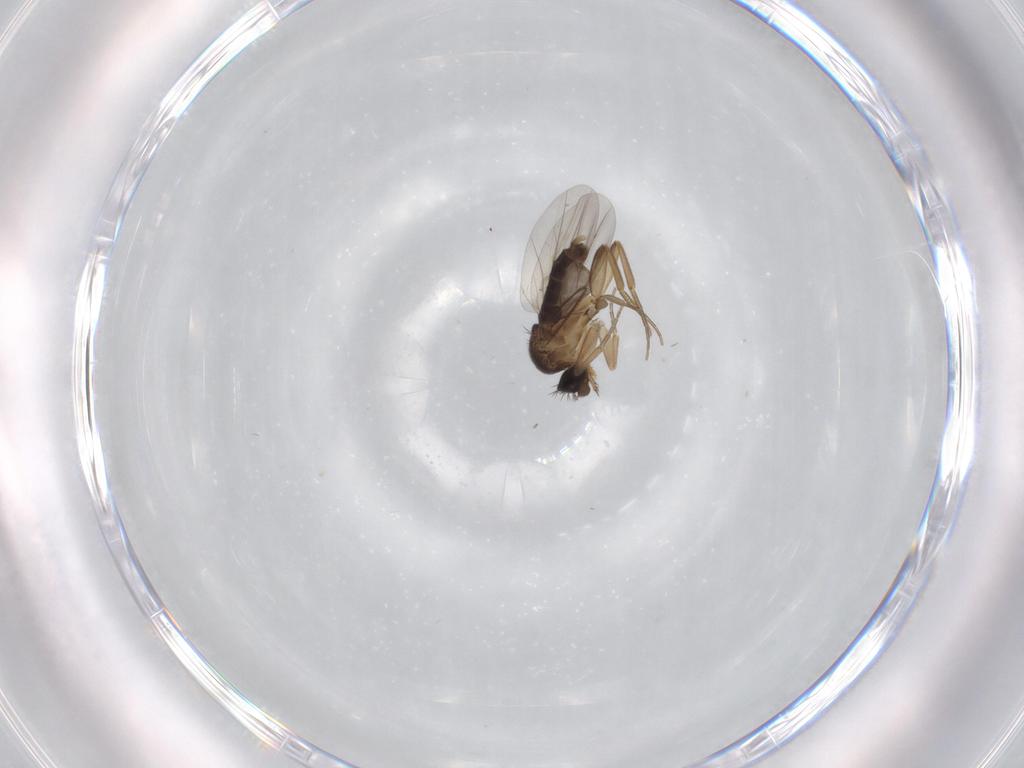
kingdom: Animalia
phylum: Arthropoda
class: Insecta
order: Diptera
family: Phoridae
